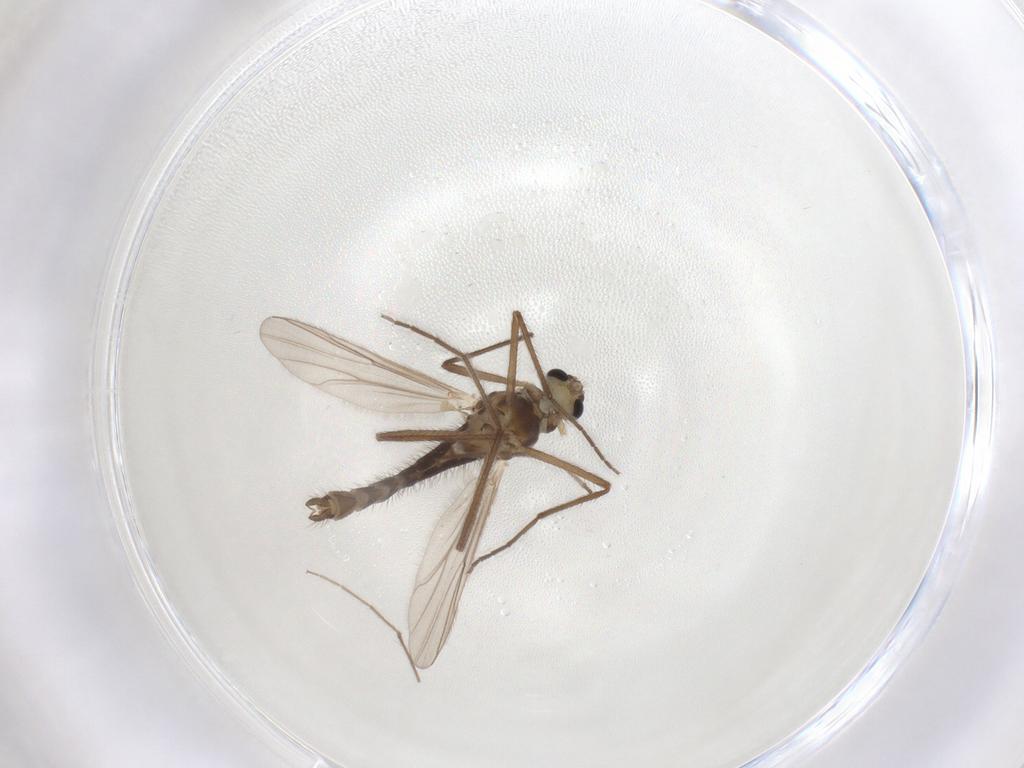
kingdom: Animalia
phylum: Arthropoda
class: Insecta
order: Diptera
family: Chironomidae
